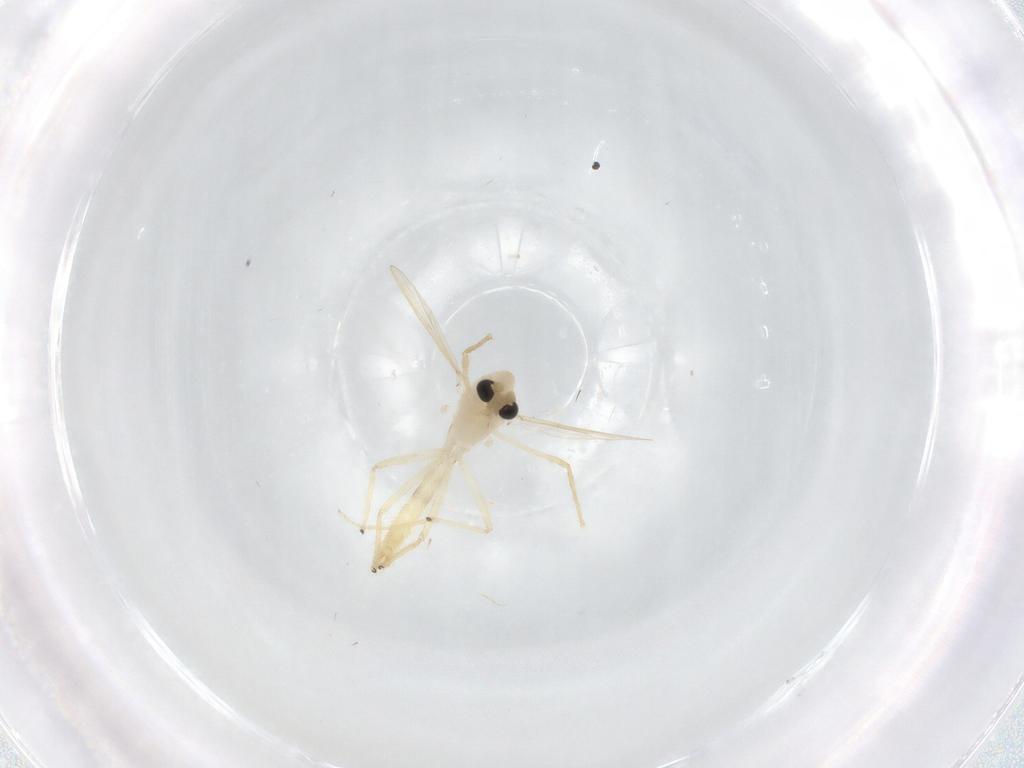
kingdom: Animalia
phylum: Arthropoda
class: Insecta
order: Diptera
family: Chironomidae
